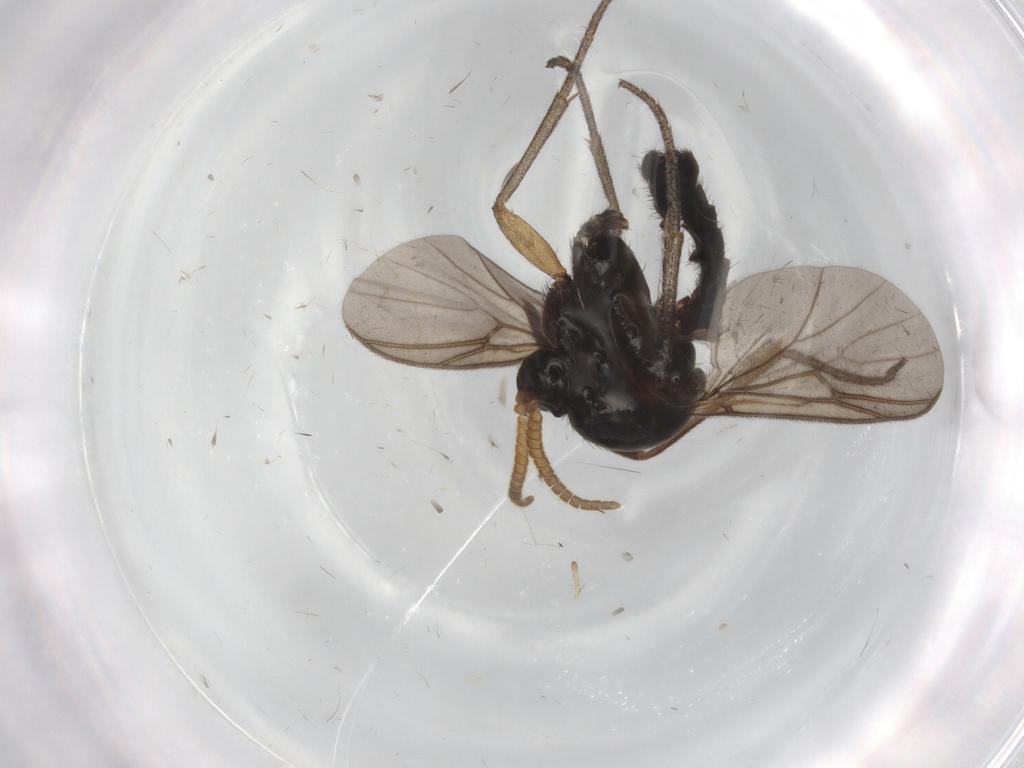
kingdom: Animalia
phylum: Arthropoda
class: Insecta
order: Diptera
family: Mycetophilidae
